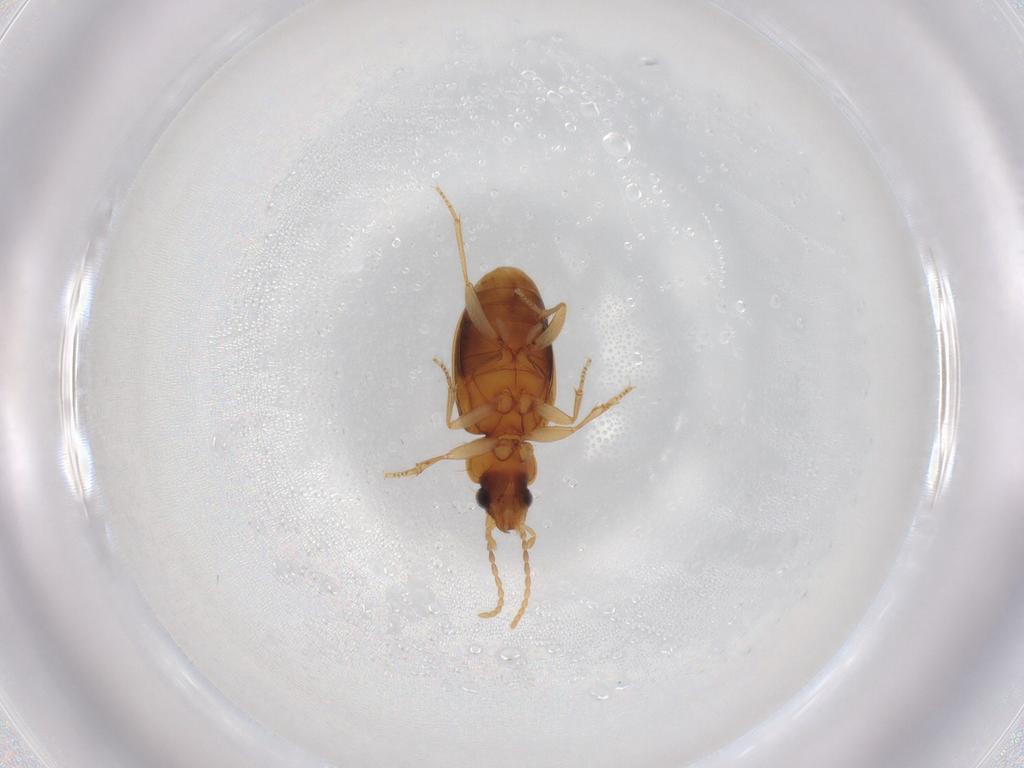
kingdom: Animalia
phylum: Arthropoda
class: Insecta
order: Coleoptera
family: Carabidae
